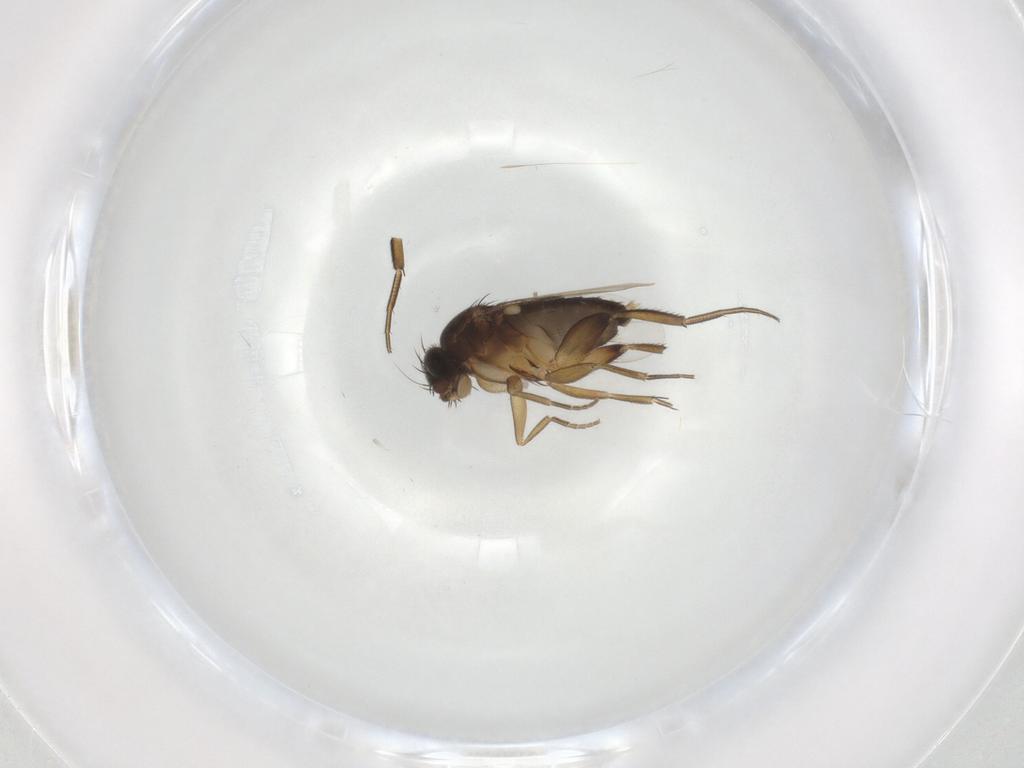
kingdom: Animalia
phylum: Arthropoda
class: Insecta
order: Diptera
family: Phoridae
